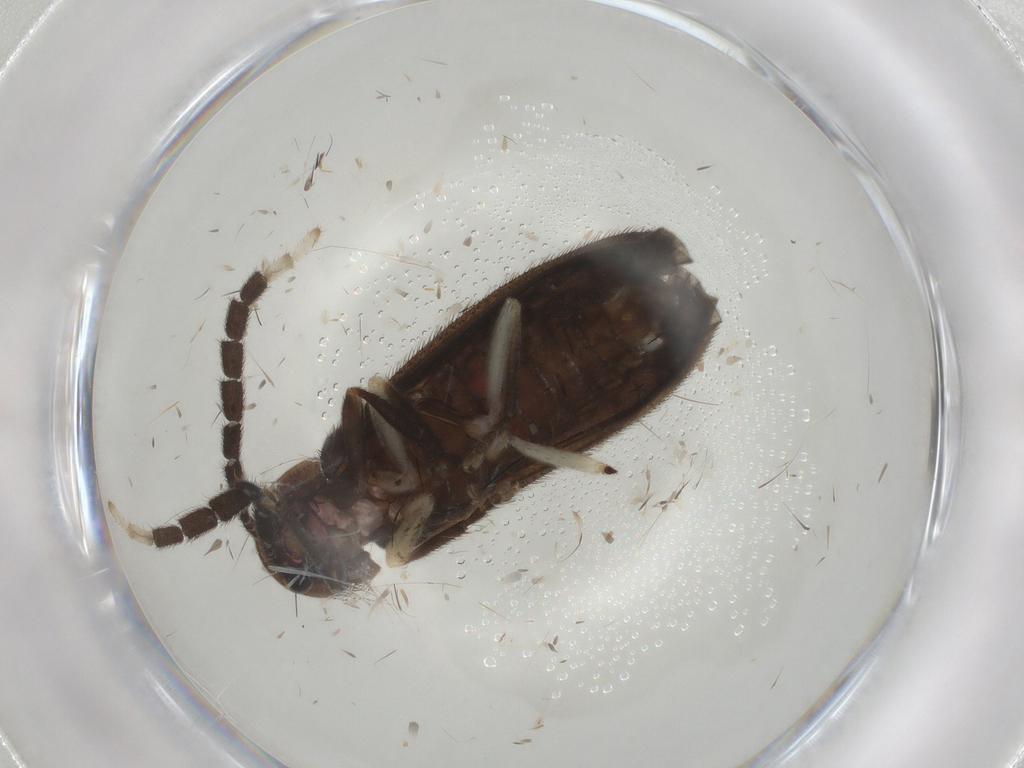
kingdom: Animalia
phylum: Arthropoda
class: Insecta
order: Coleoptera
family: Lampyridae
